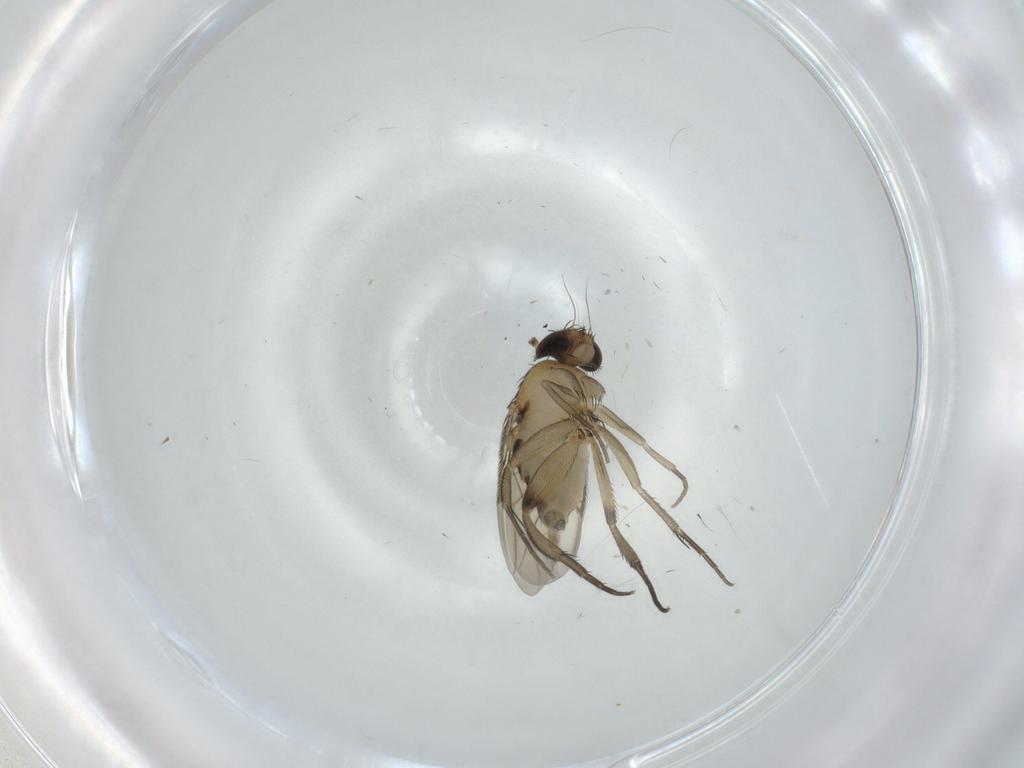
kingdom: Animalia
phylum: Arthropoda
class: Insecta
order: Diptera
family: Phoridae
